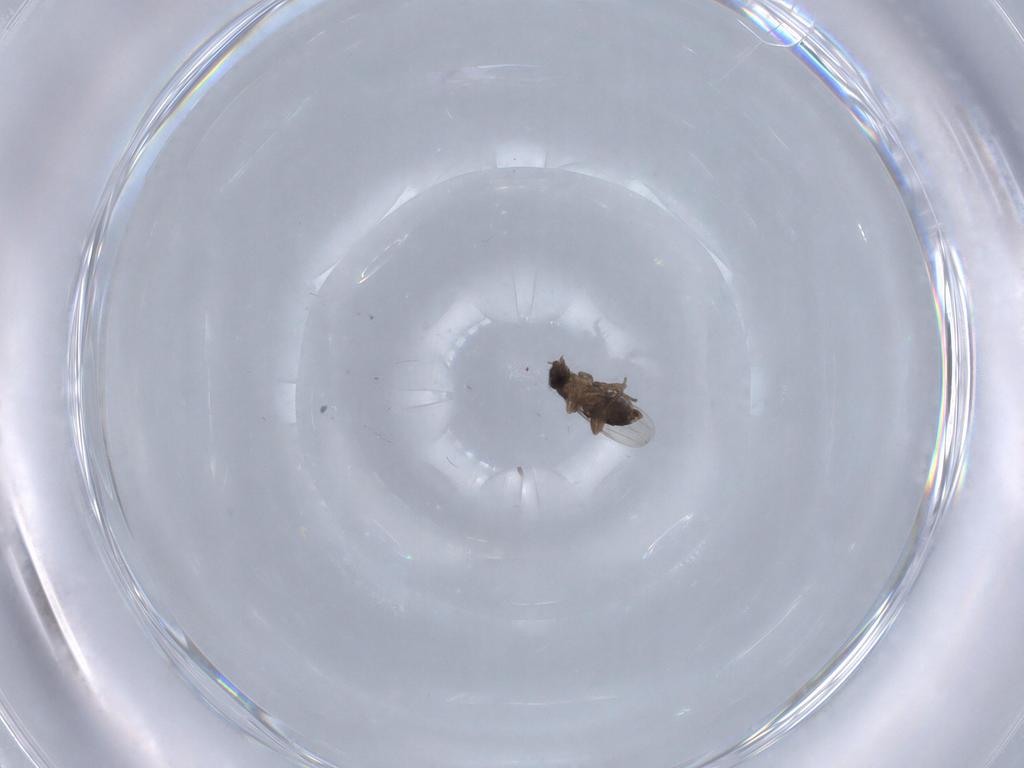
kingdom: Animalia
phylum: Arthropoda
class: Insecta
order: Diptera
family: Phoridae
